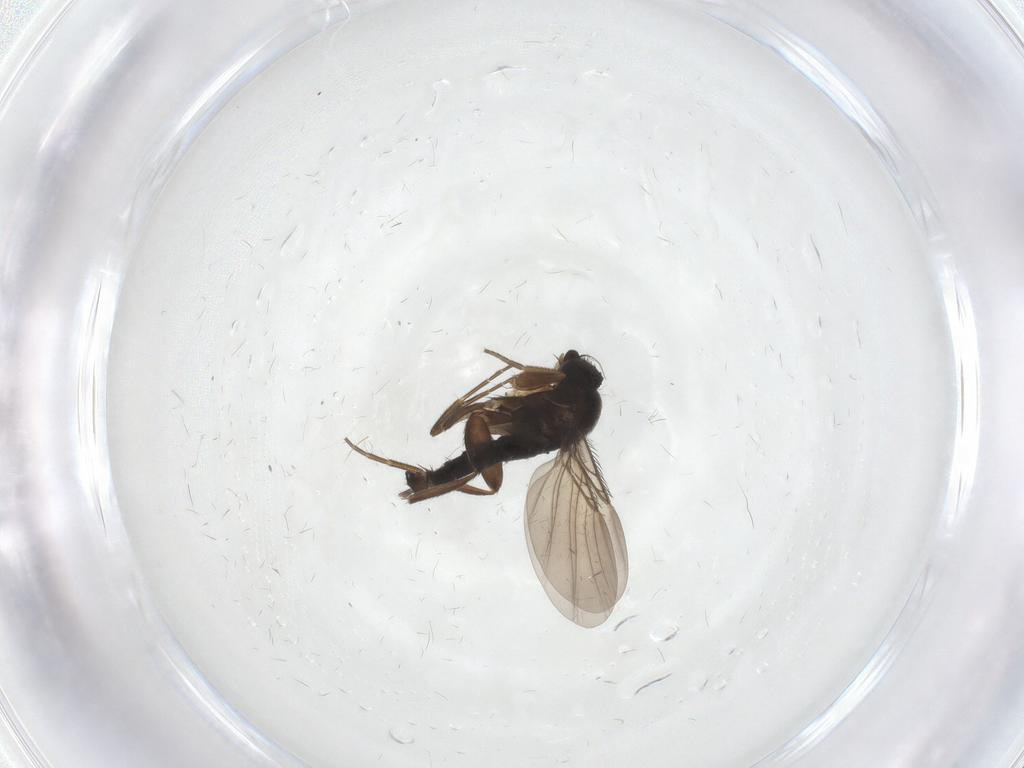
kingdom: Animalia
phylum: Arthropoda
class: Insecta
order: Diptera
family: Phoridae
